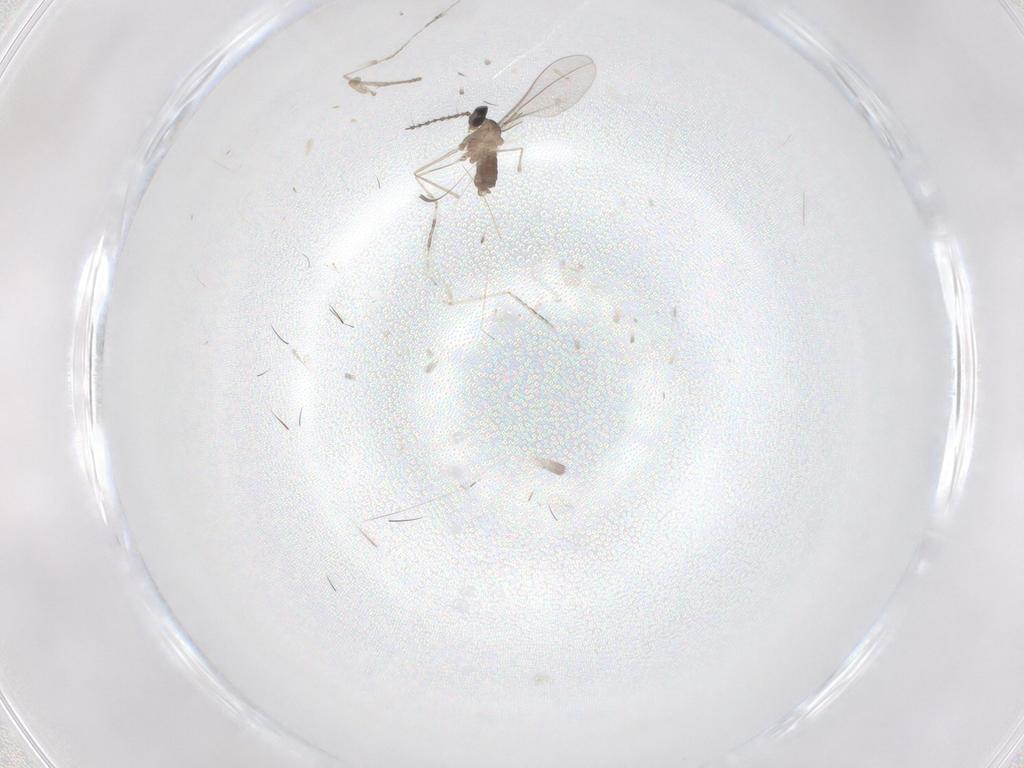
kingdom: Animalia
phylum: Arthropoda
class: Insecta
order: Diptera
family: Cecidomyiidae
